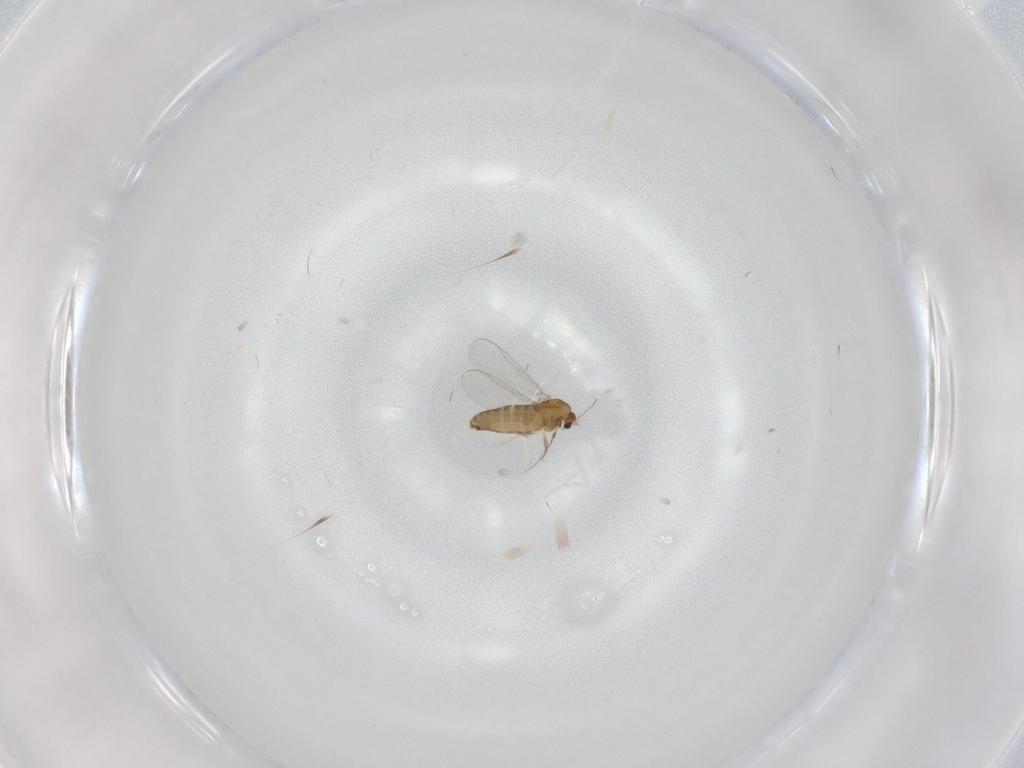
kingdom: Animalia
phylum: Arthropoda
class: Insecta
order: Diptera
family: Chironomidae
